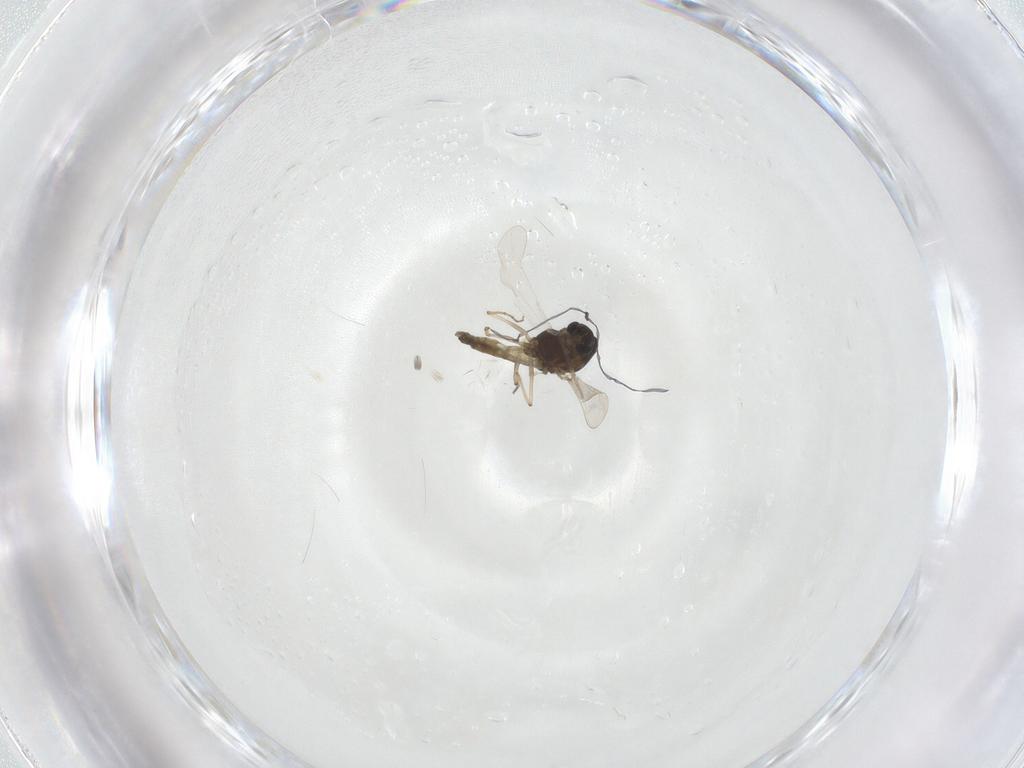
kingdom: Animalia
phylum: Arthropoda
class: Insecta
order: Diptera
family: Chironomidae
